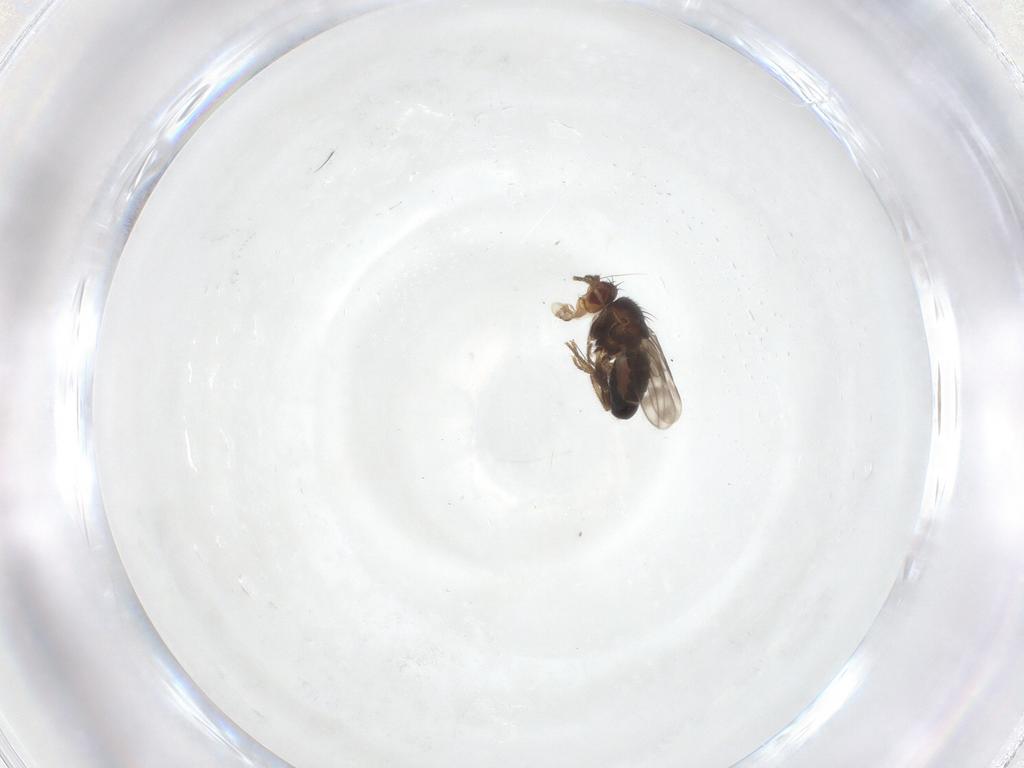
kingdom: Animalia
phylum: Arthropoda
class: Insecta
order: Diptera
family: Sphaeroceridae
